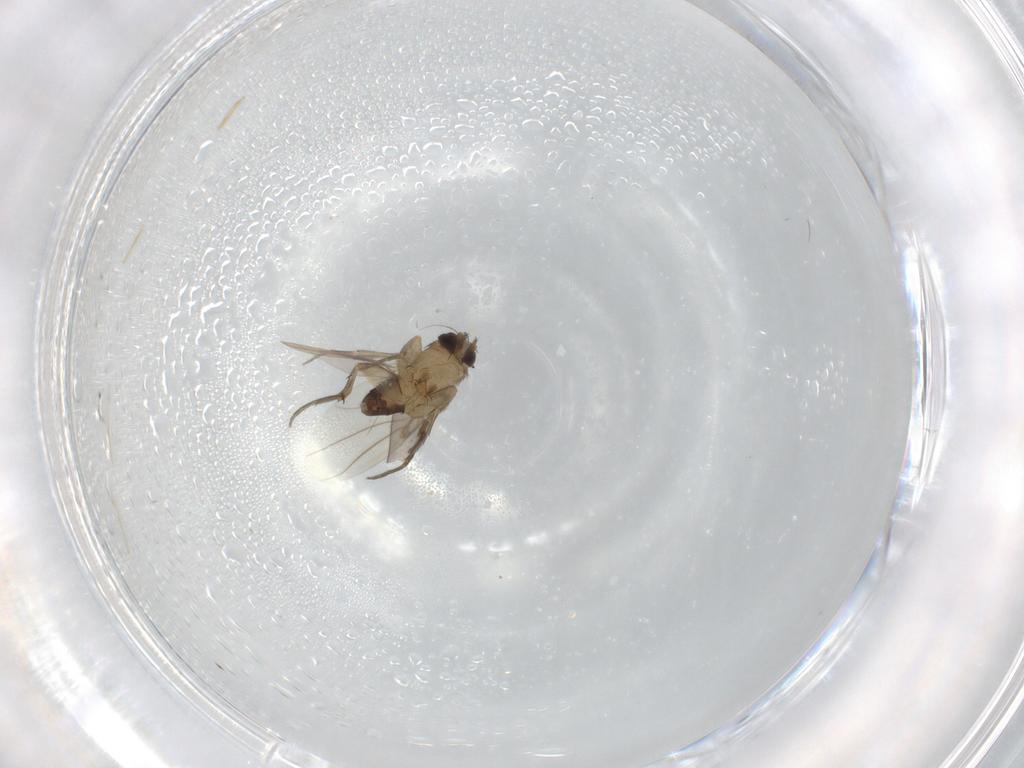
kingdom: Animalia
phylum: Arthropoda
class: Insecta
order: Diptera
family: Phoridae
